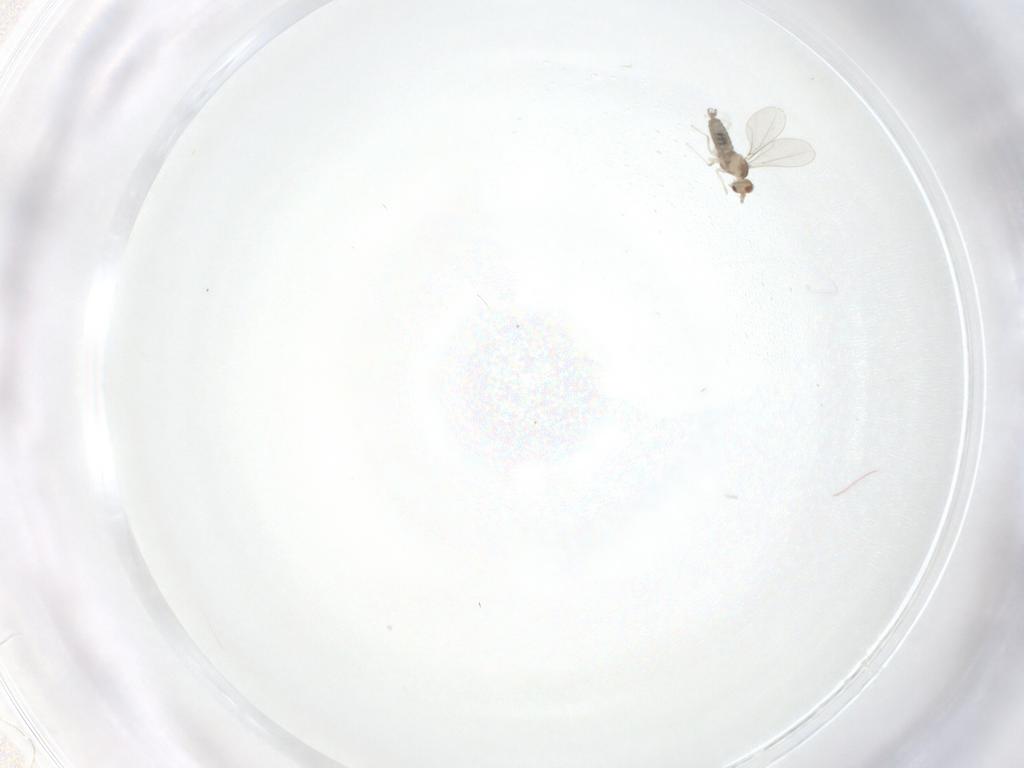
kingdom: Animalia
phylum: Arthropoda
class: Insecta
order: Diptera
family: Cecidomyiidae
